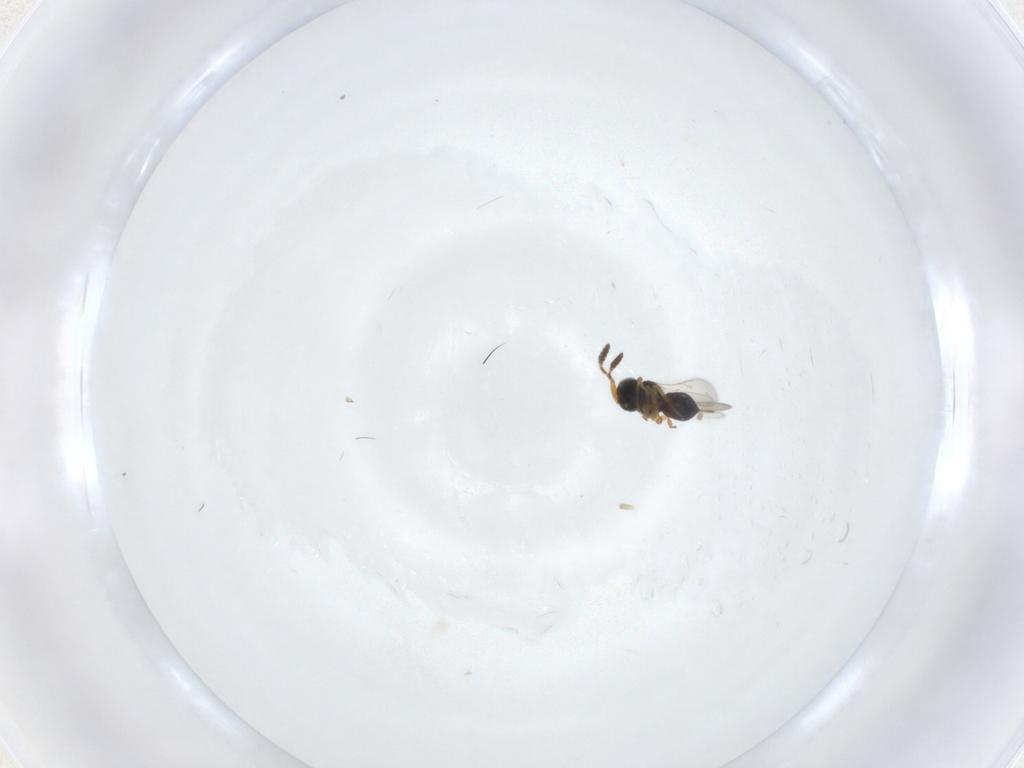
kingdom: Animalia
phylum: Arthropoda
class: Insecta
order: Hymenoptera
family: Scelionidae
